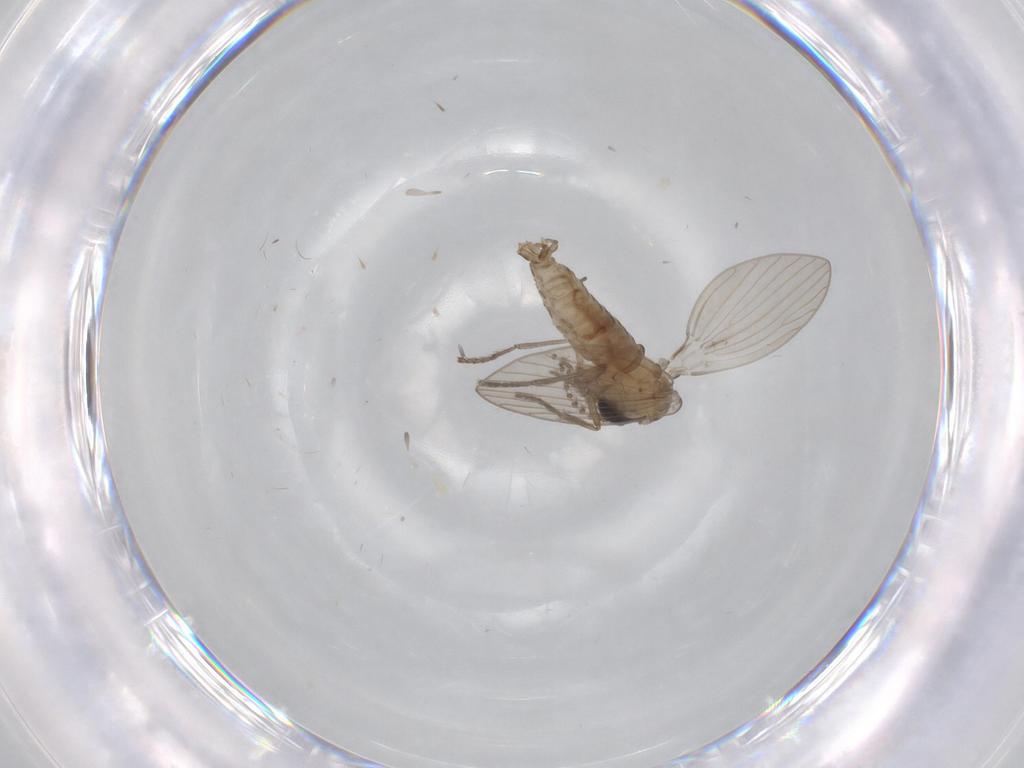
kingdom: Animalia
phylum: Arthropoda
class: Insecta
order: Diptera
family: Psychodidae
